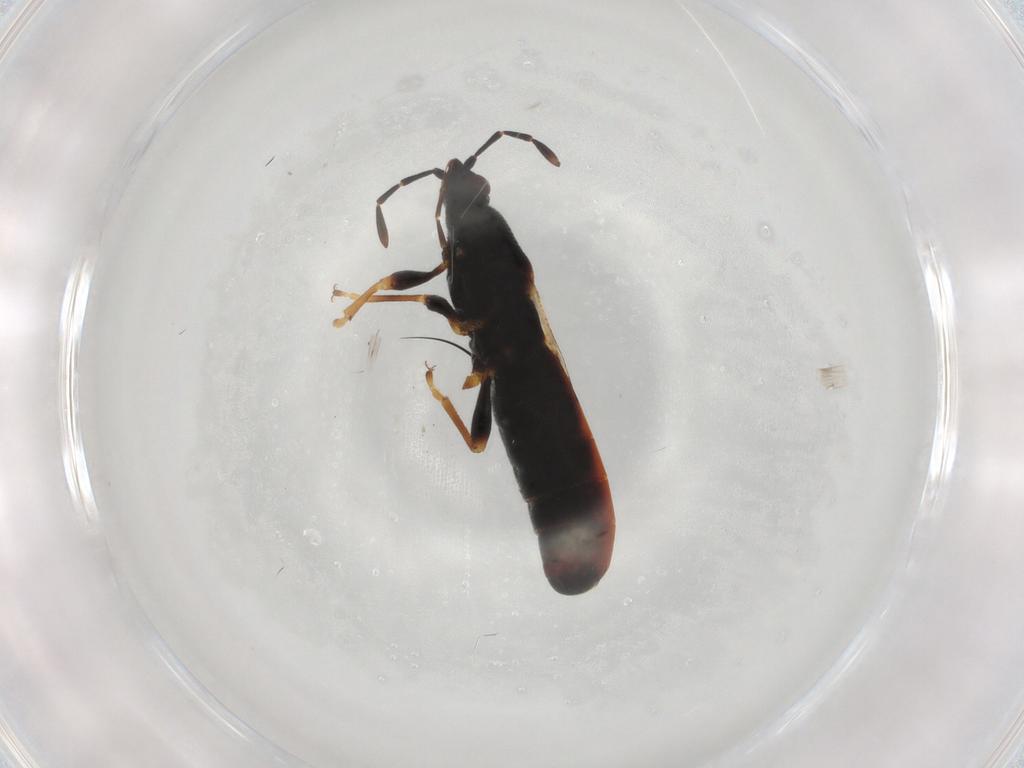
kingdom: Animalia
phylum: Arthropoda
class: Insecta
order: Hemiptera
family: Blissidae
